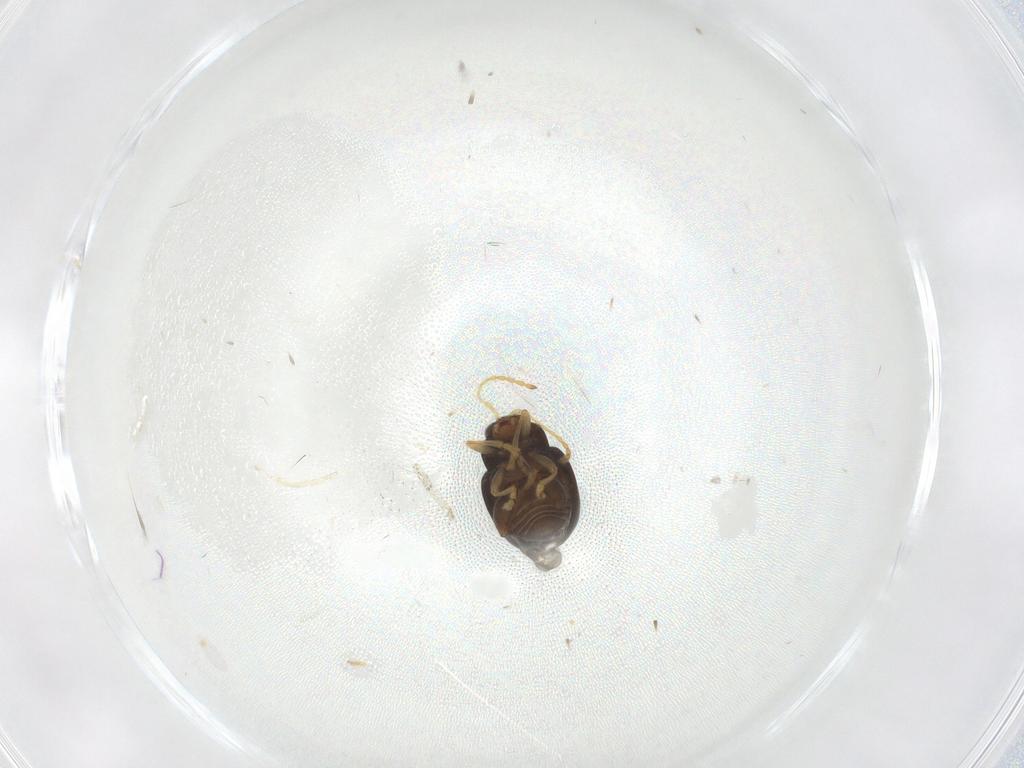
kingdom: Animalia
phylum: Arthropoda
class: Insecta
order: Coleoptera
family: Chrysomelidae
